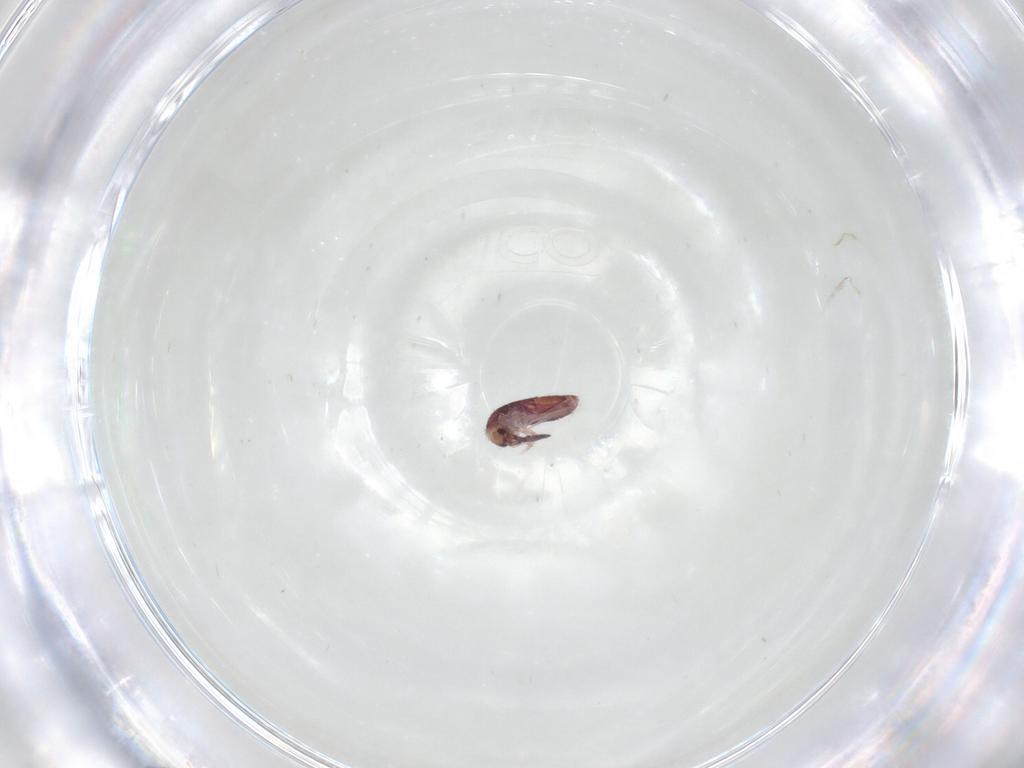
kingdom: Animalia
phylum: Arthropoda
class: Collembola
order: Entomobryomorpha
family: Entomobryidae
